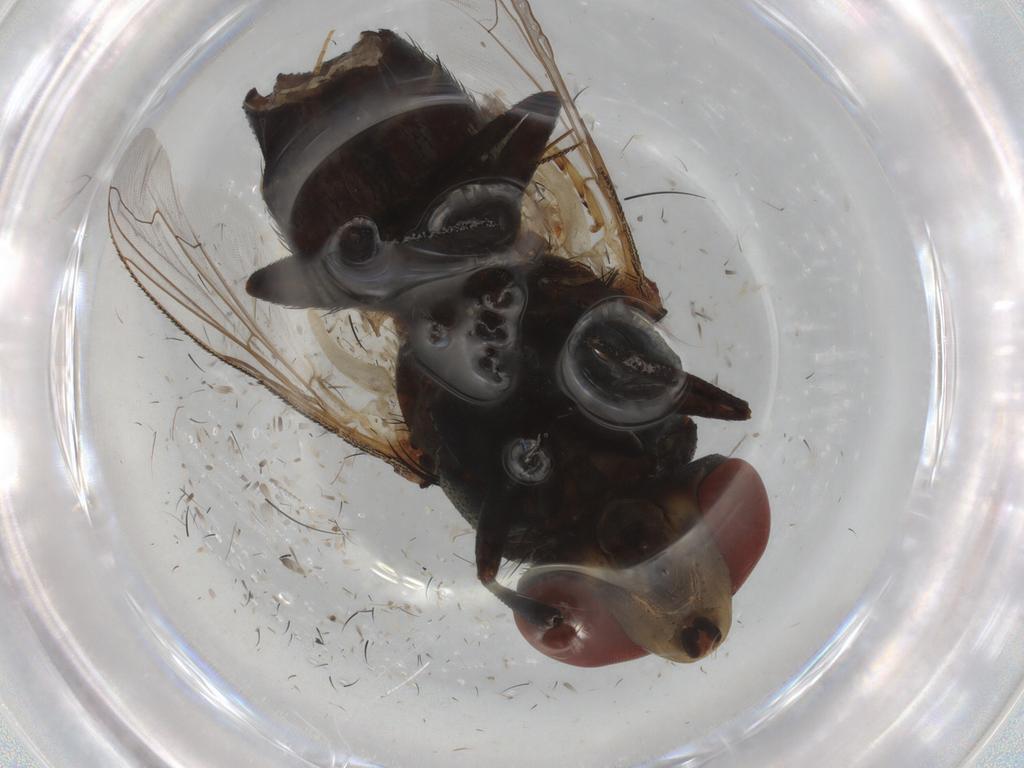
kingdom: Animalia
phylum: Arthropoda
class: Insecta
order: Diptera
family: Sarcophagidae
